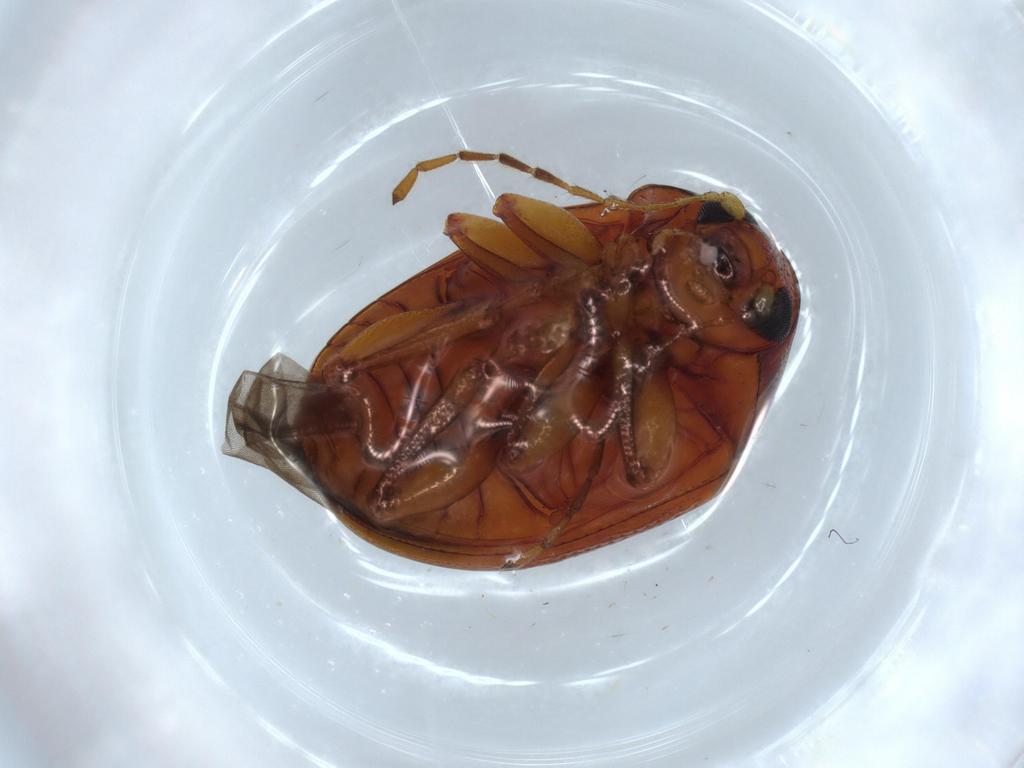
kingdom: Animalia
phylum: Arthropoda
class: Insecta
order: Coleoptera
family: Chrysomelidae
